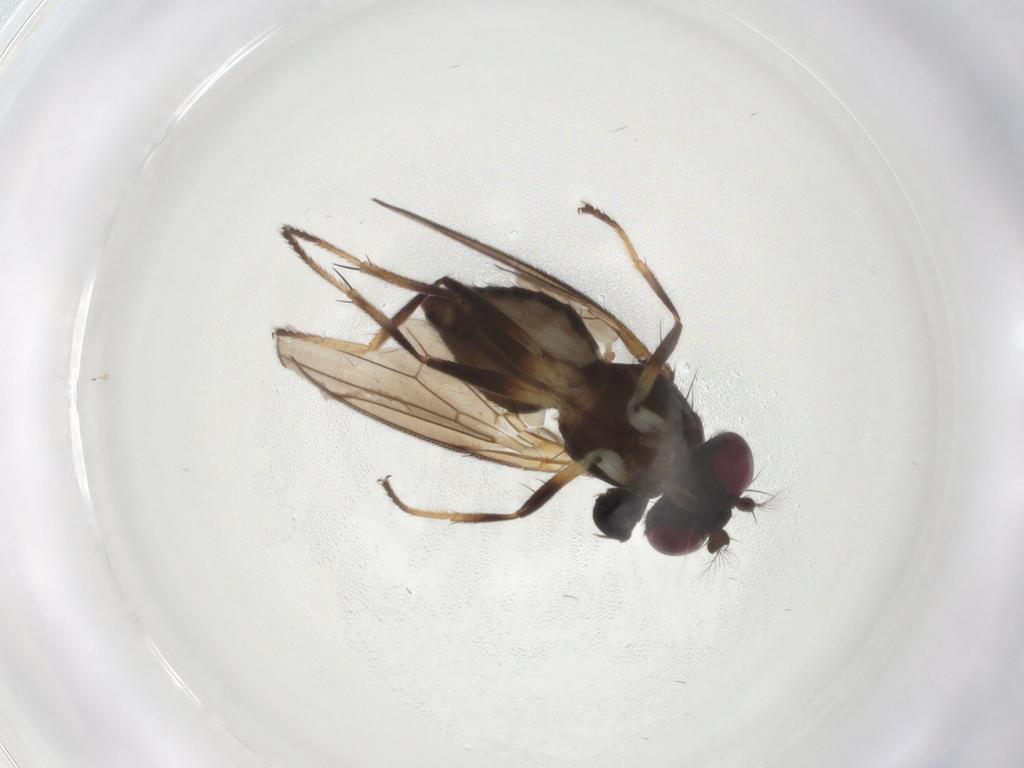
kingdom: Animalia
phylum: Arthropoda
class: Insecta
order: Diptera
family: Periscelididae
